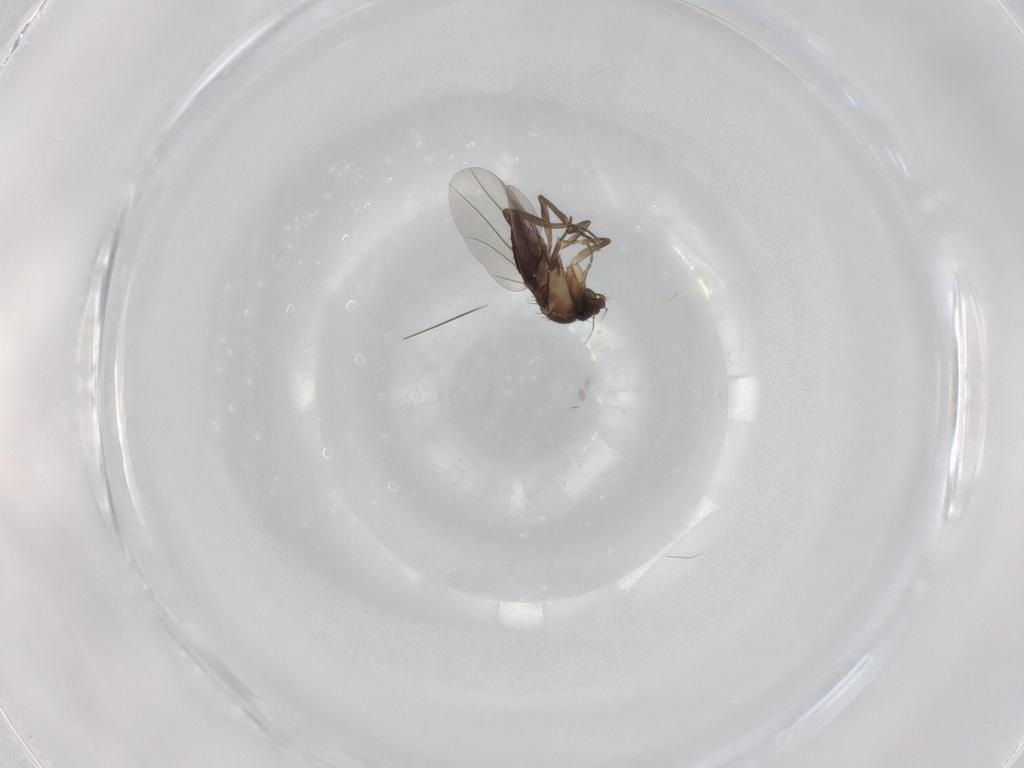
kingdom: Animalia
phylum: Arthropoda
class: Insecta
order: Diptera
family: Phoridae
